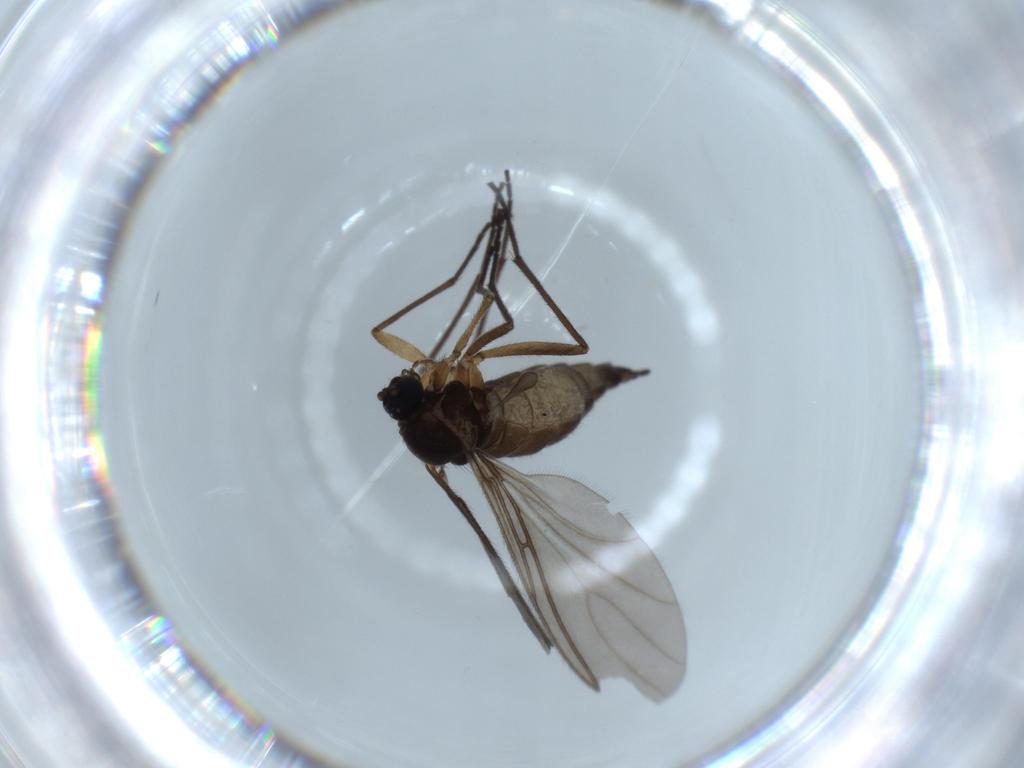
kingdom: Animalia
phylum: Arthropoda
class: Insecta
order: Diptera
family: Sciaridae
